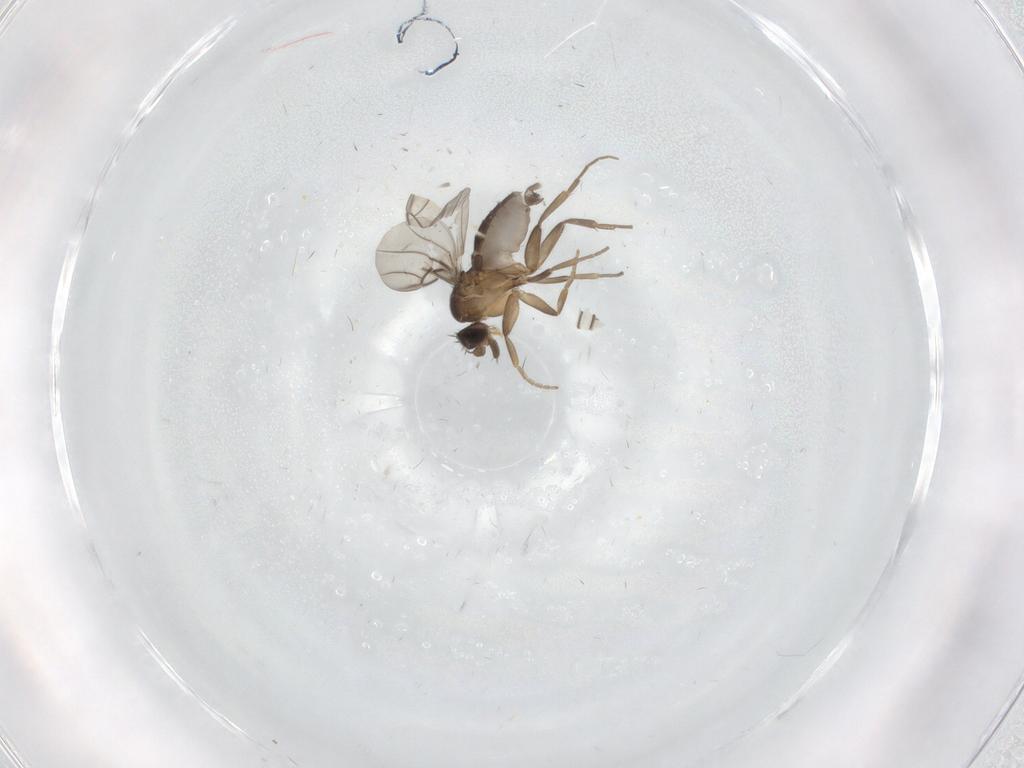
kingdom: Animalia
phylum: Arthropoda
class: Insecta
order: Diptera
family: Phoridae
